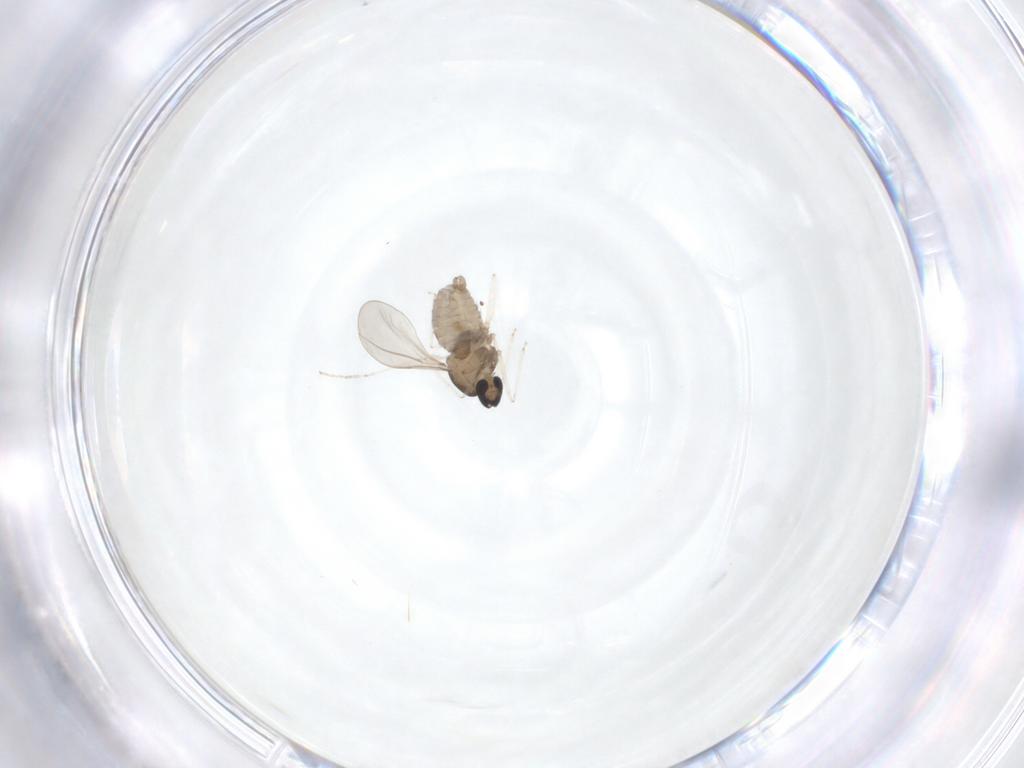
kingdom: Animalia
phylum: Arthropoda
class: Insecta
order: Diptera
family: Cecidomyiidae
